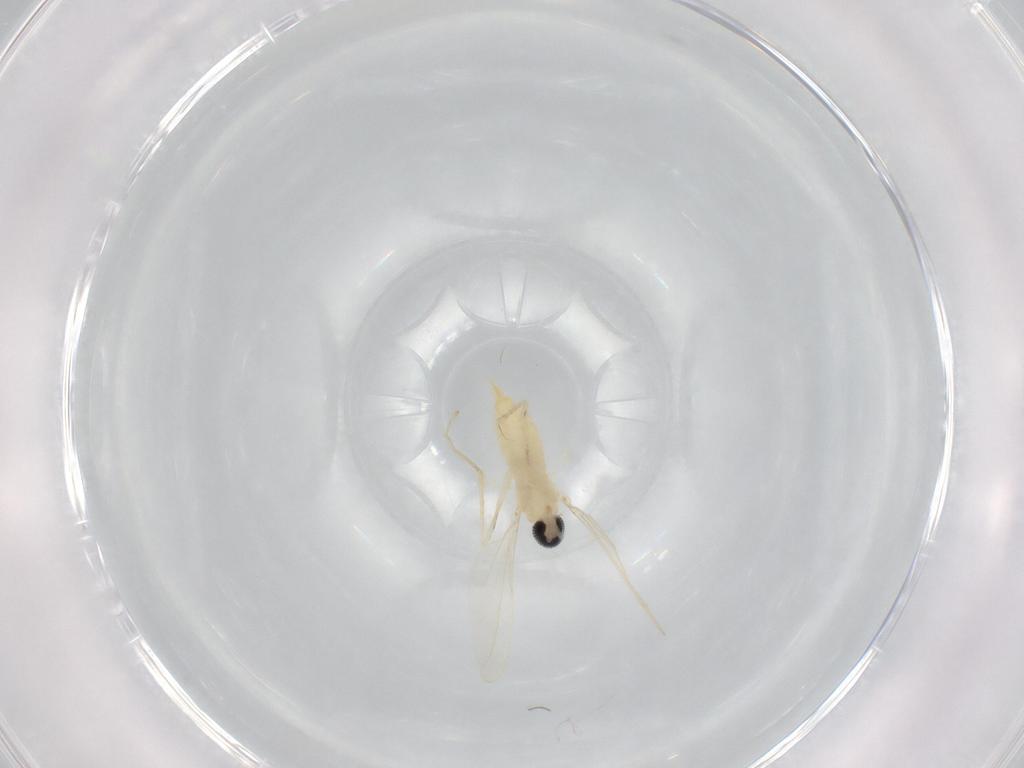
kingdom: Animalia
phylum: Arthropoda
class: Insecta
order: Diptera
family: Cecidomyiidae
